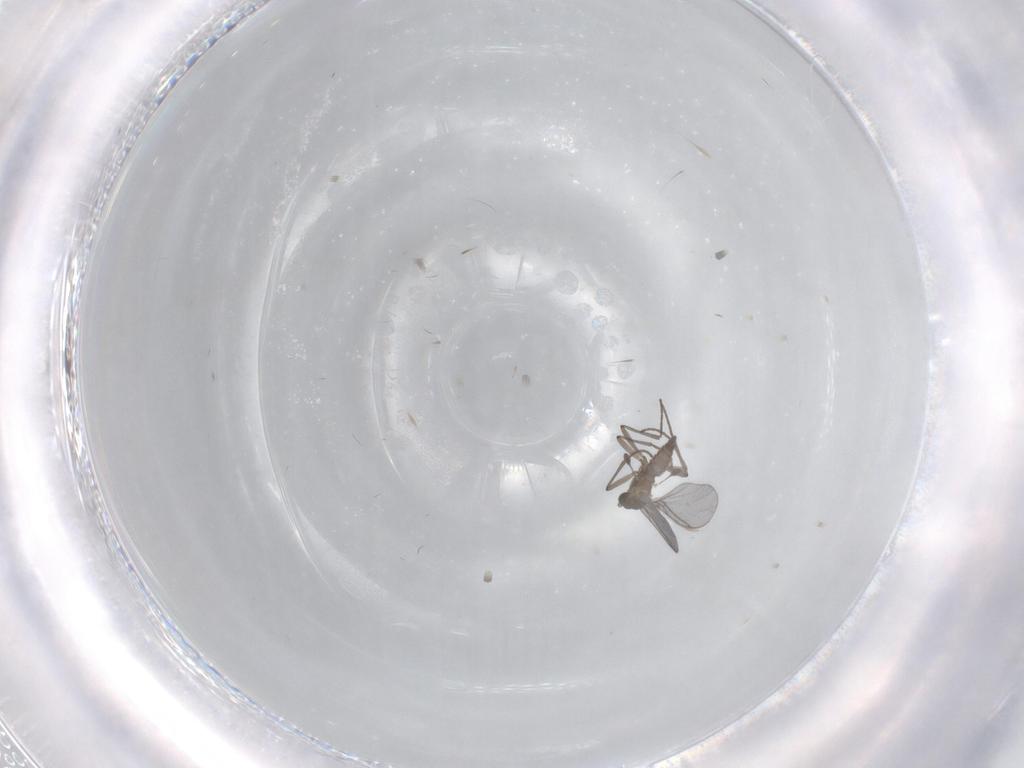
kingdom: Animalia
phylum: Arthropoda
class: Insecta
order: Diptera
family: Sciaridae
